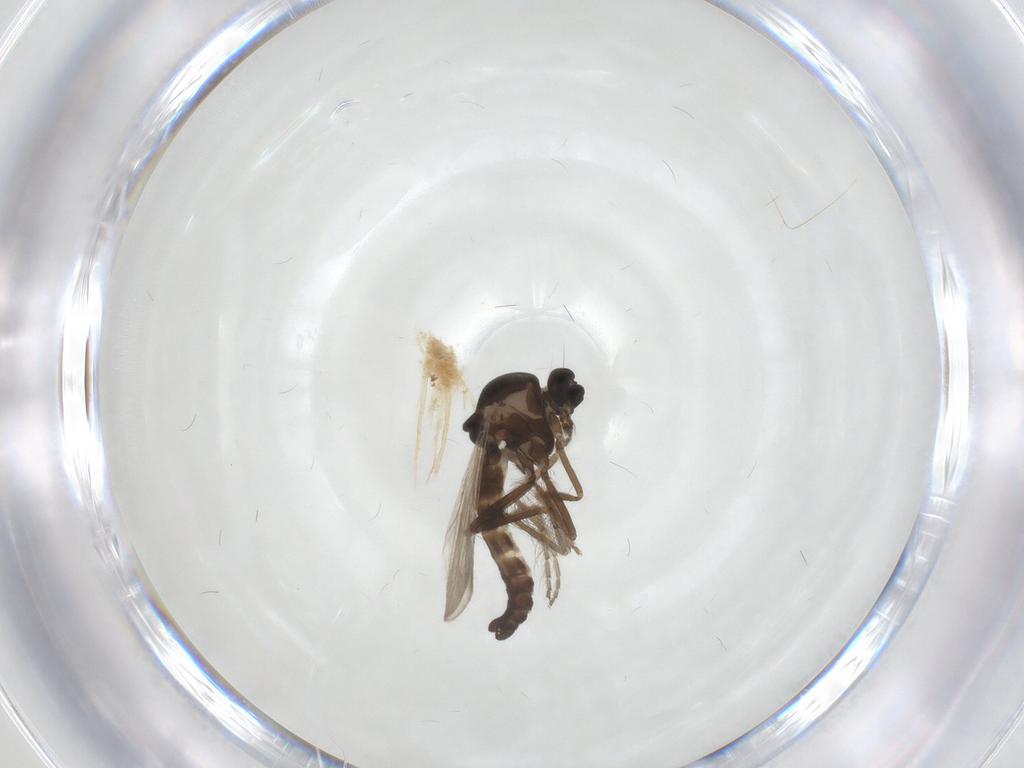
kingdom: Animalia
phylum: Arthropoda
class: Insecta
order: Diptera
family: Ceratopogonidae
